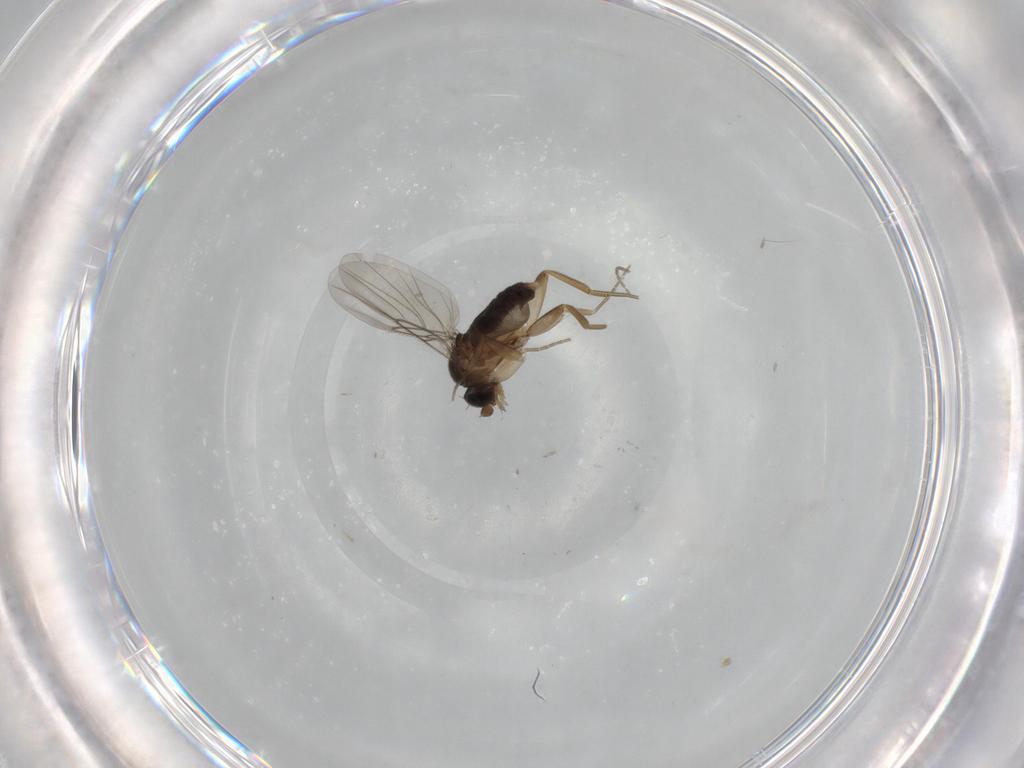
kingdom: Animalia
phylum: Arthropoda
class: Insecta
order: Diptera
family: Phoridae
